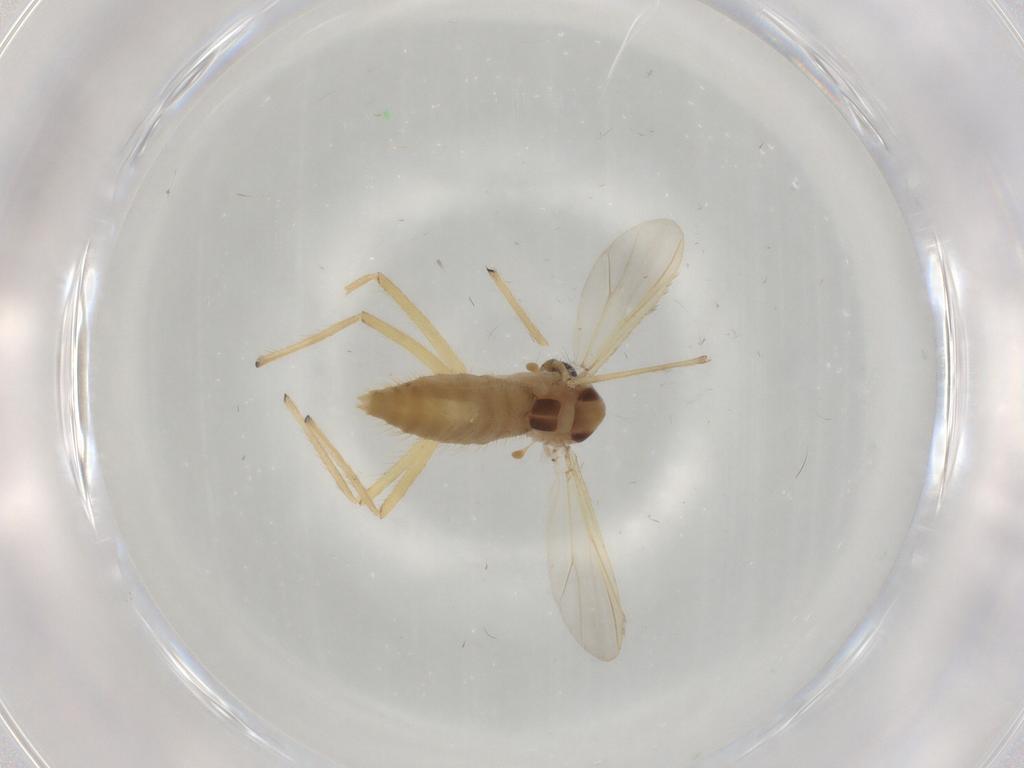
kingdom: Animalia
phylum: Arthropoda
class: Insecta
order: Diptera
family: Chironomidae
